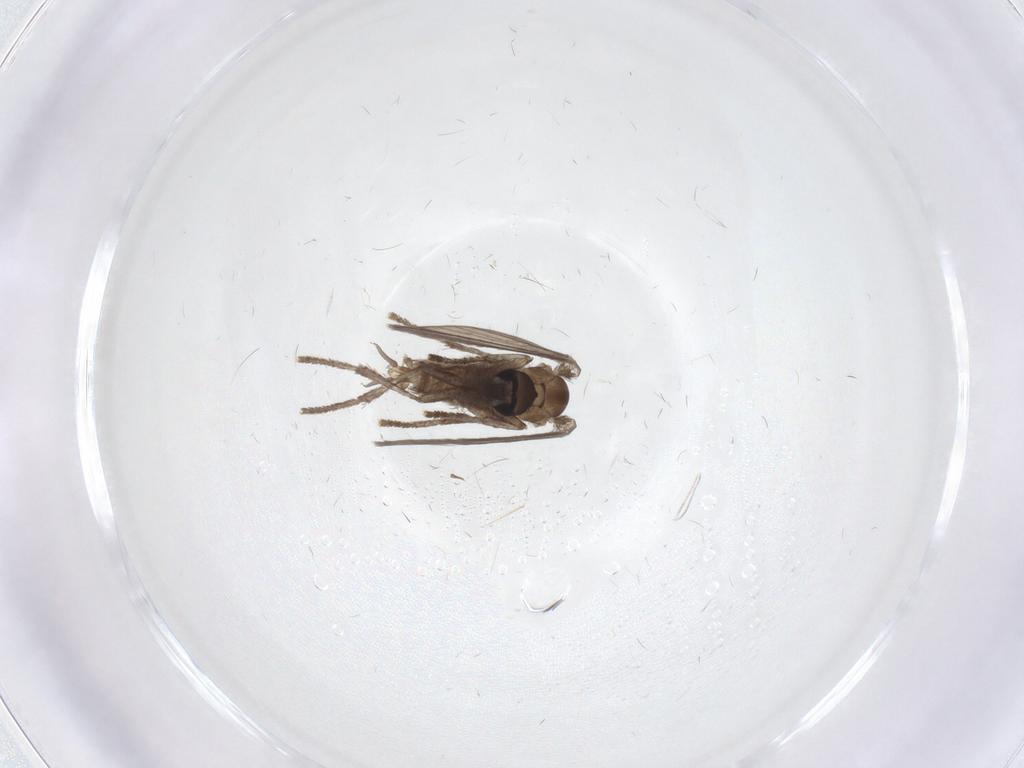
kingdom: Animalia
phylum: Arthropoda
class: Insecta
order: Diptera
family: Psychodidae
